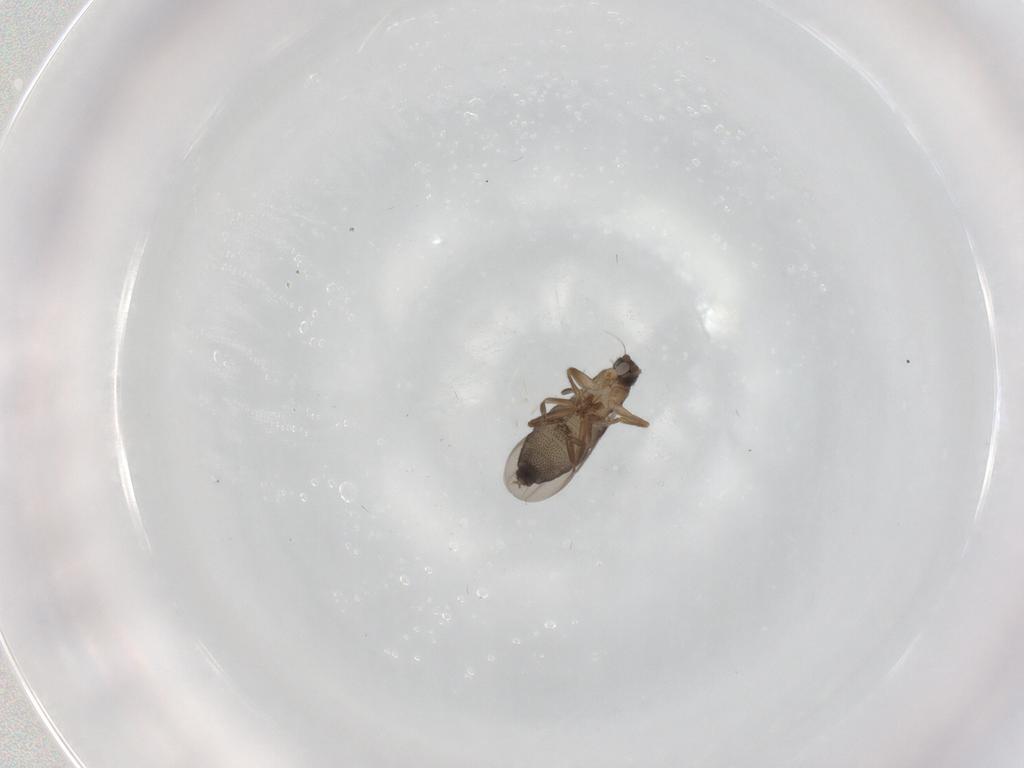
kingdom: Animalia
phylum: Arthropoda
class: Insecta
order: Diptera
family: Phoridae
